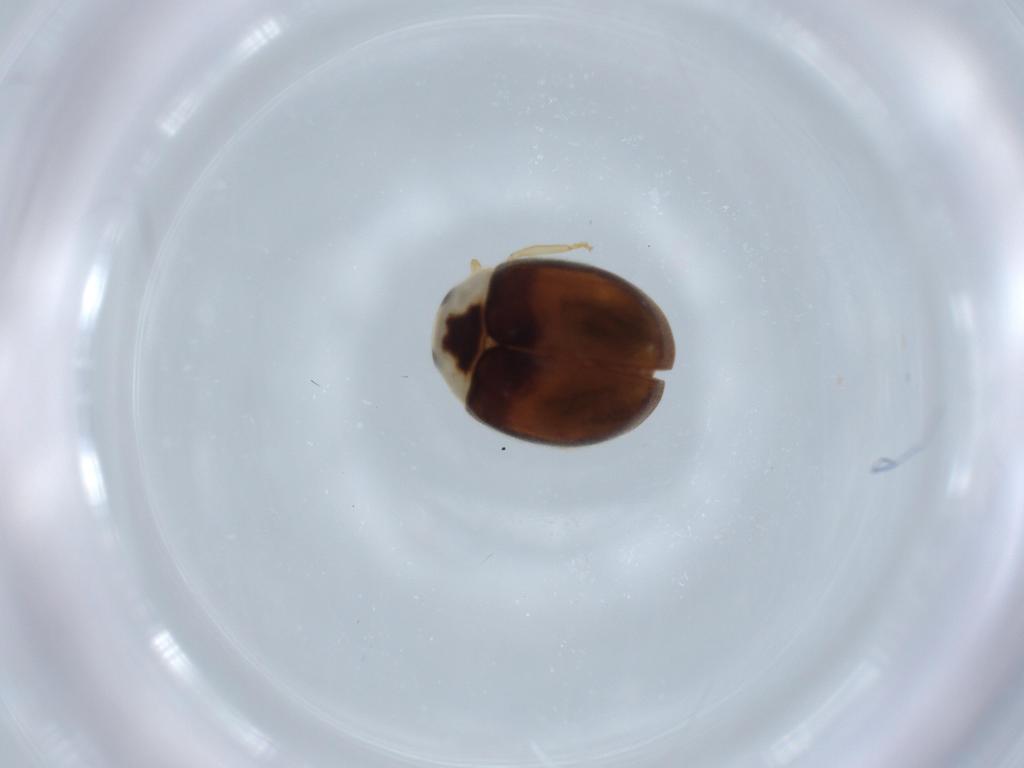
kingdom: Animalia
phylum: Arthropoda
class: Insecta
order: Coleoptera
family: Coccinellidae
